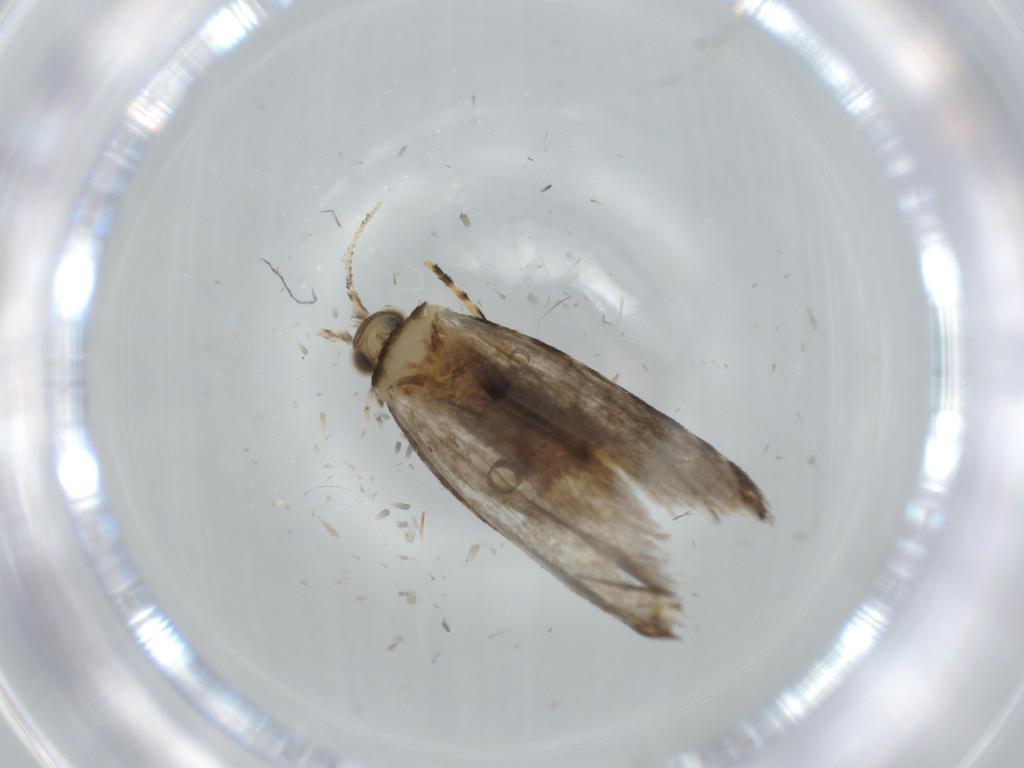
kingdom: Animalia
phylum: Arthropoda
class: Insecta
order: Lepidoptera
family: Tineidae
